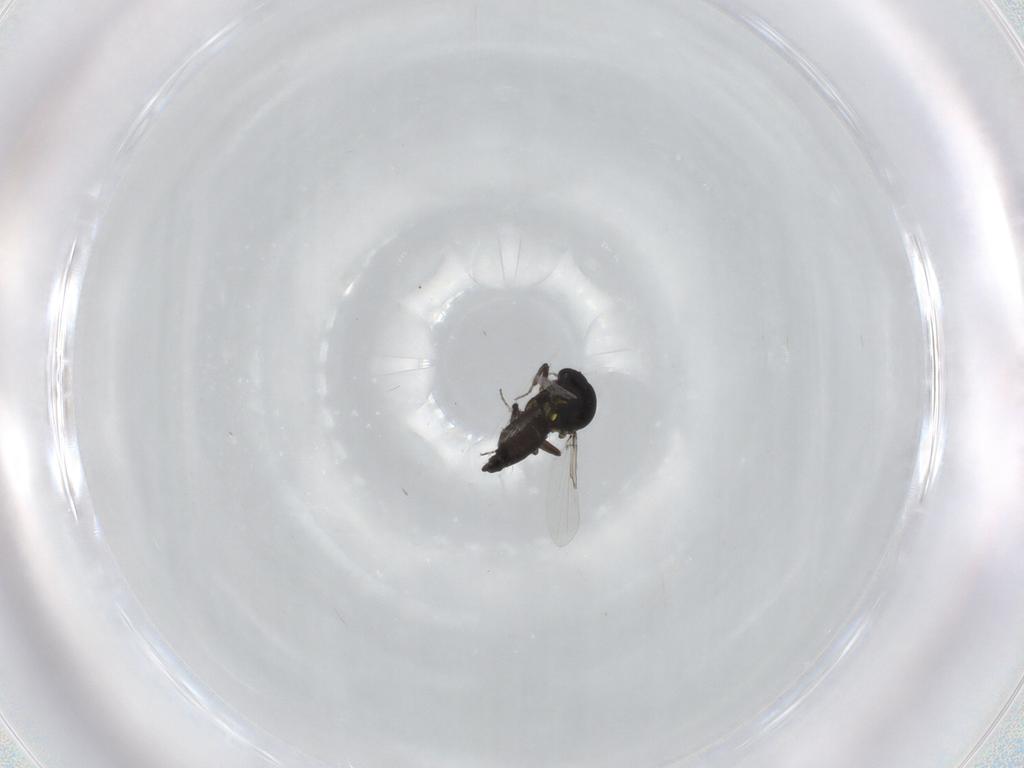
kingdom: Animalia
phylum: Arthropoda
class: Insecta
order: Diptera
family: Ceratopogonidae
